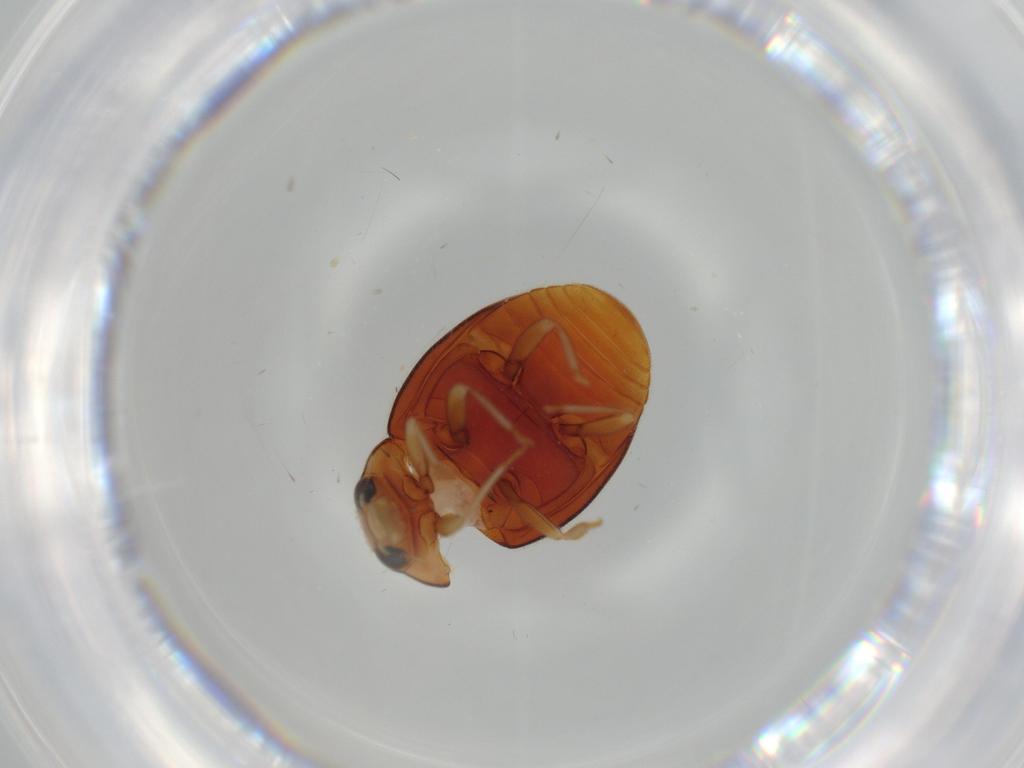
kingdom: Animalia
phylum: Arthropoda
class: Insecta
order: Coleoptera
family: Coccinellidae
